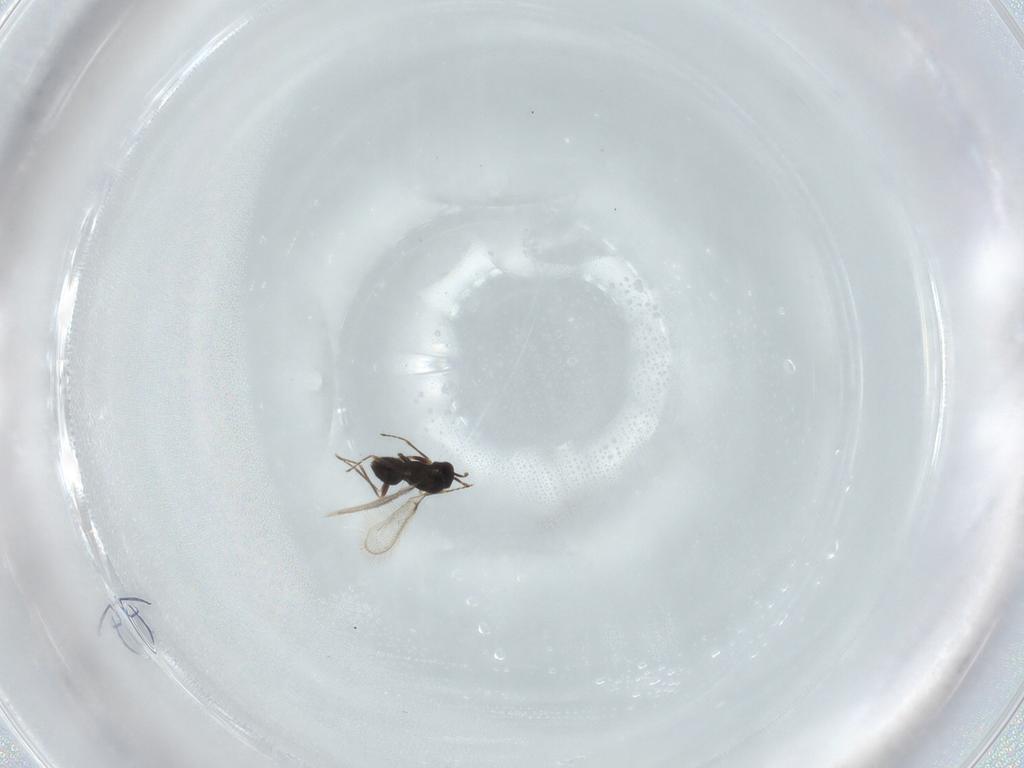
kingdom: Animalia
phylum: Arthropoda
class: Insecta
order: Hymenoptera
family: Mymaridae
